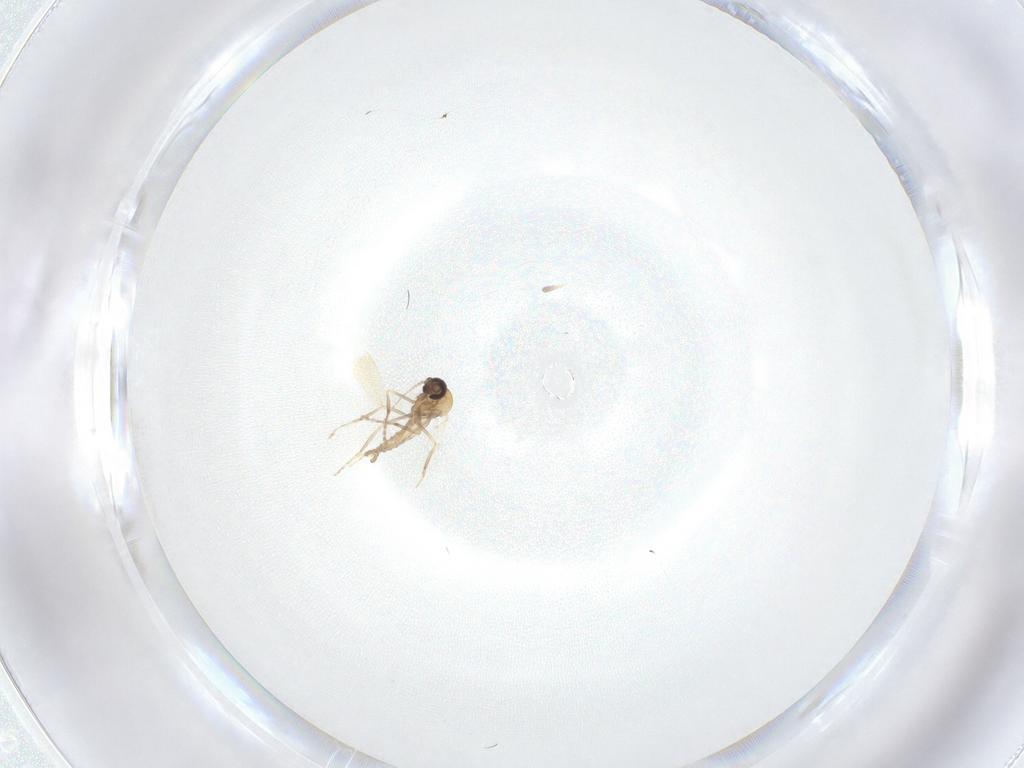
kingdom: Animalia
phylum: Arthropoda
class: Insecta
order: Diptera
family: Ceratopogonidae
